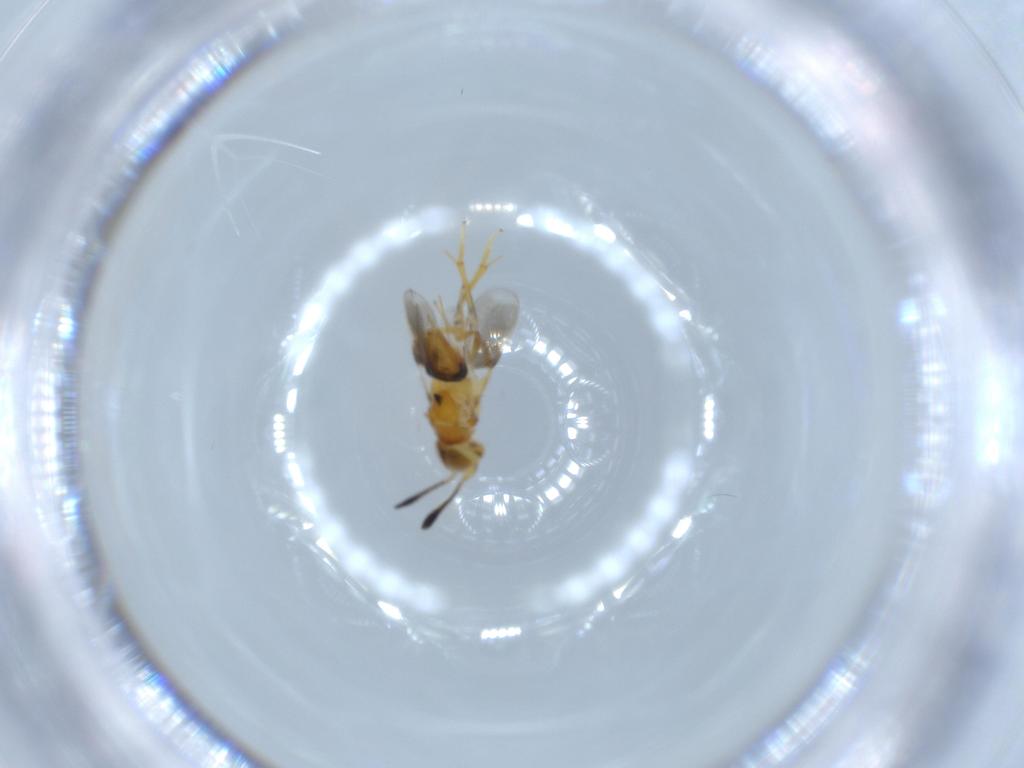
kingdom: Animalia
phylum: Arthropoda
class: Insecta
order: Hymenoptera
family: Encyrtidae
